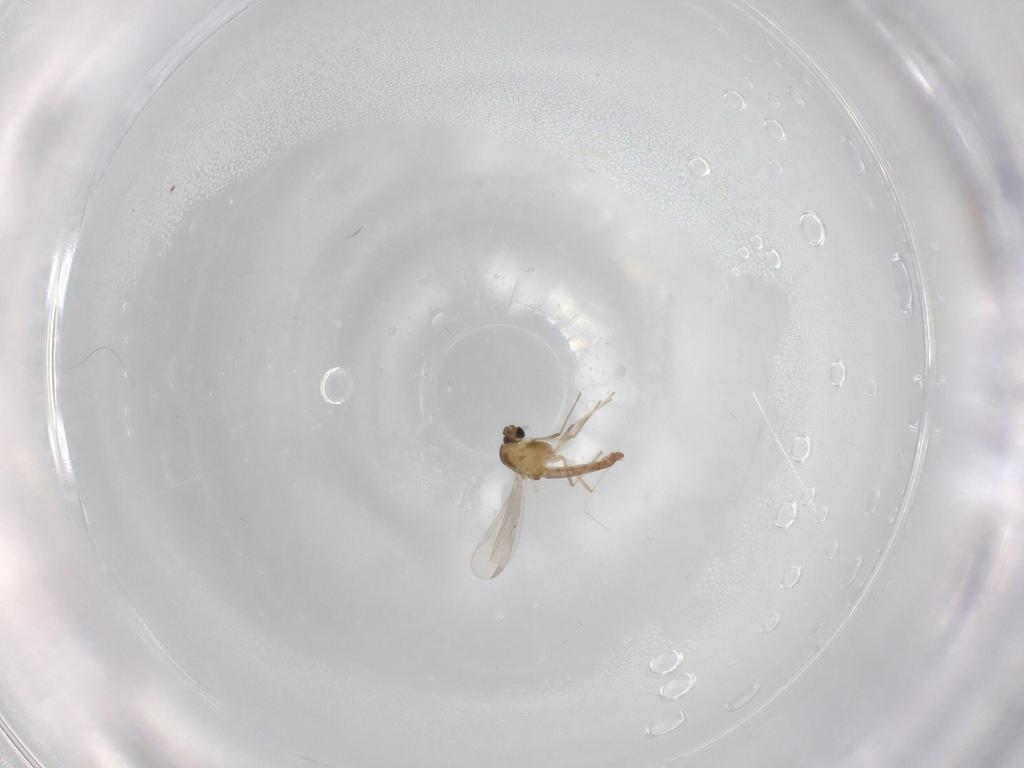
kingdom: Animalia
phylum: Arthropoda
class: Insecta
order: Diptera
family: Chironomidae
